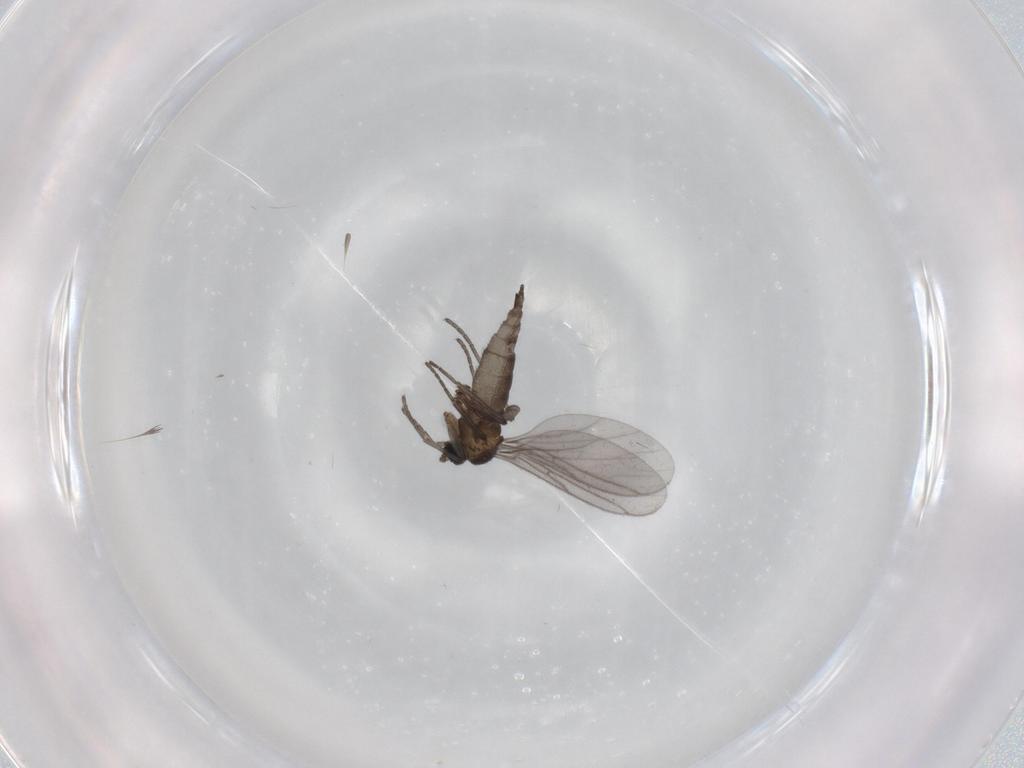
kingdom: Animalia
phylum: Arthropoda
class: Insecta
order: Diptera
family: Sciaridae
